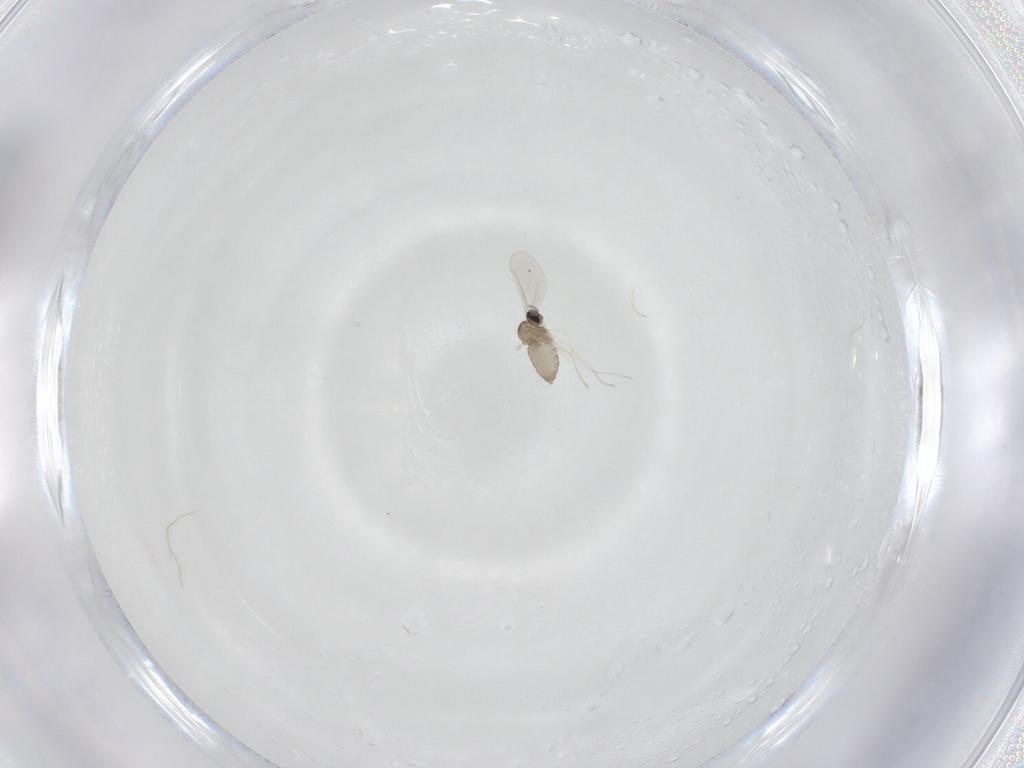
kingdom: Animalia
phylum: Arthropoda
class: Insecta
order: Diptera
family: Cecidomyiidae
